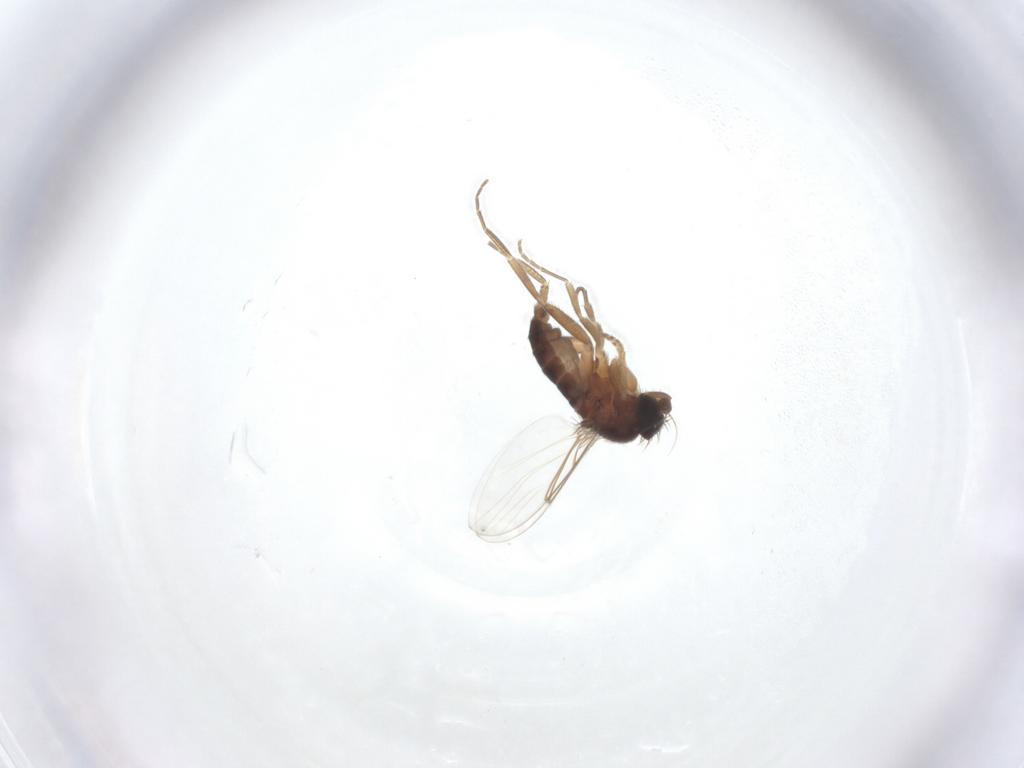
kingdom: Animalia
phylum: Arthropoda
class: Insecta
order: Diptera
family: Phoridae
